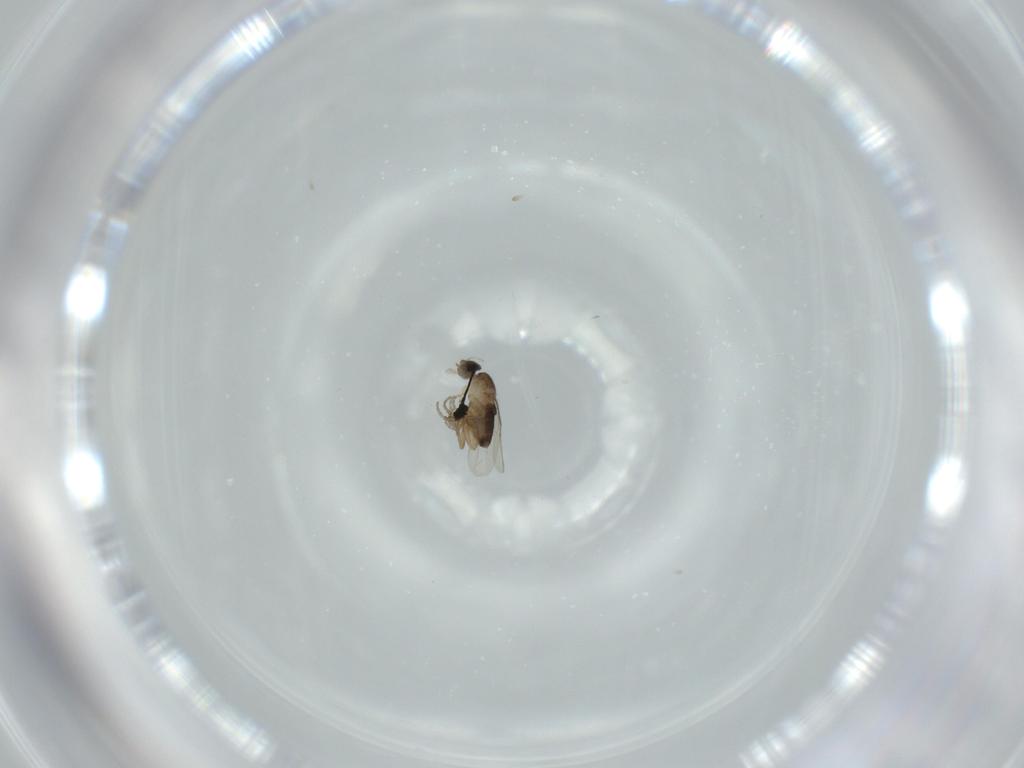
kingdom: Animalia
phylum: Arthropoda
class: Insecta
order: Diptera
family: Phoridae
